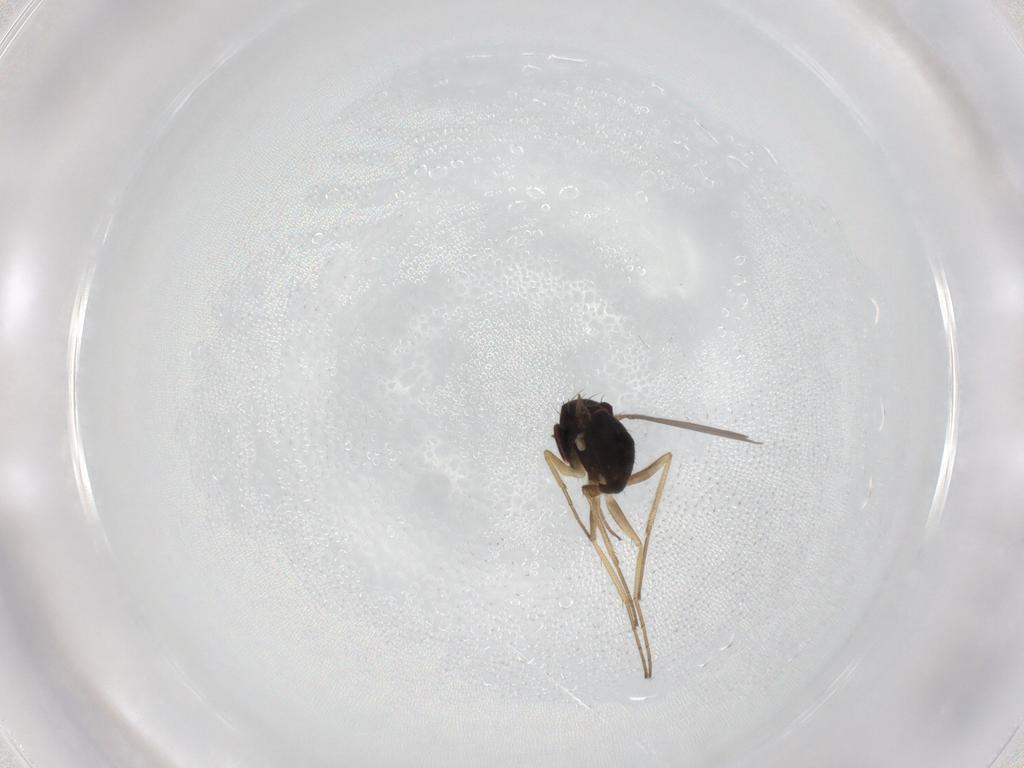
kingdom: Animalia
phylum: Arthropoda
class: Insecta
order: Diptera
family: Dolichopodidae
